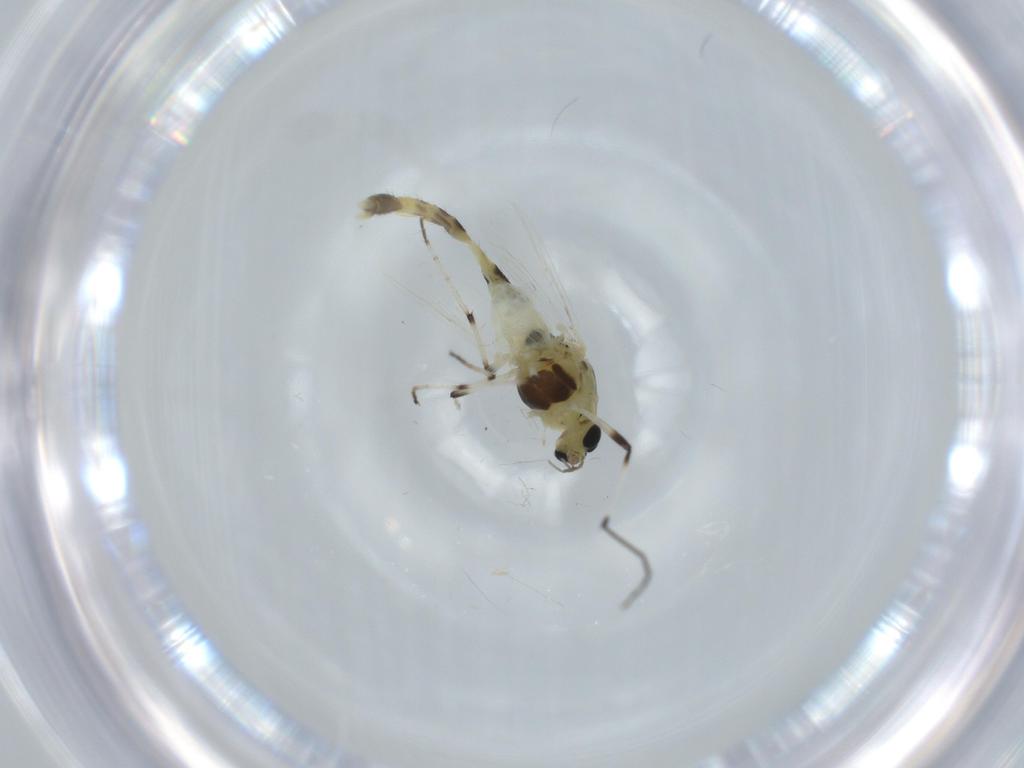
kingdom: Animalia
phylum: Arthropoda
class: Insecta
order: Diptera
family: Chironomidae
